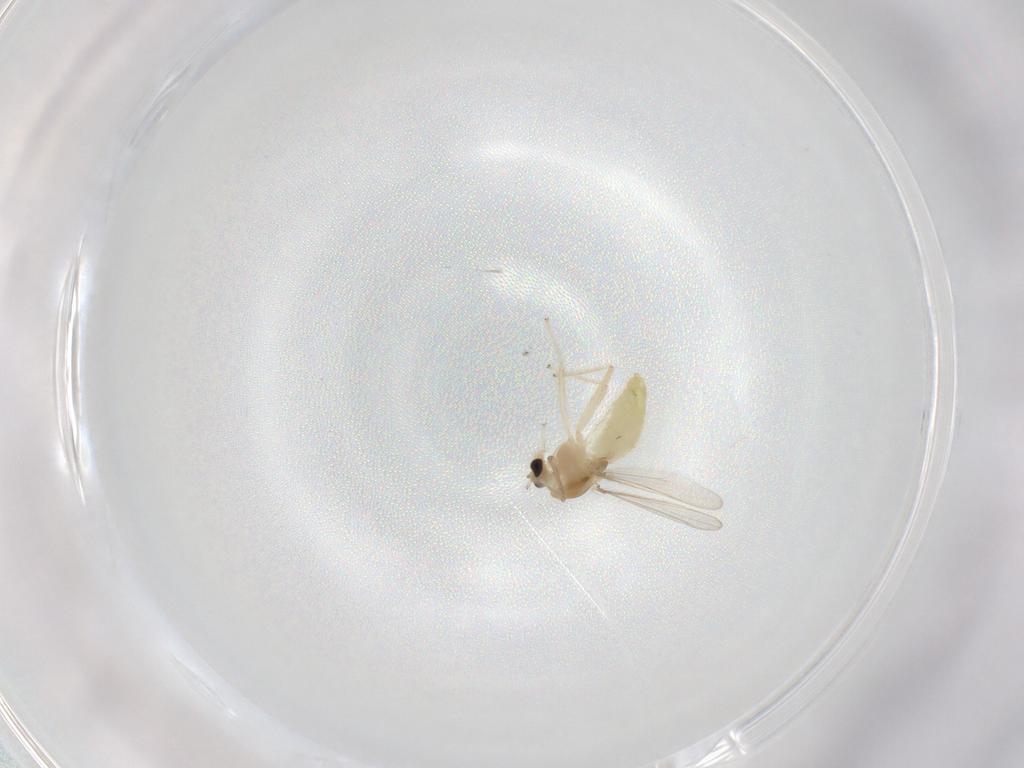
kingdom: Animalia
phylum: Arthropoda
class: Insecta
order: Diptera
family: Chironomidae
